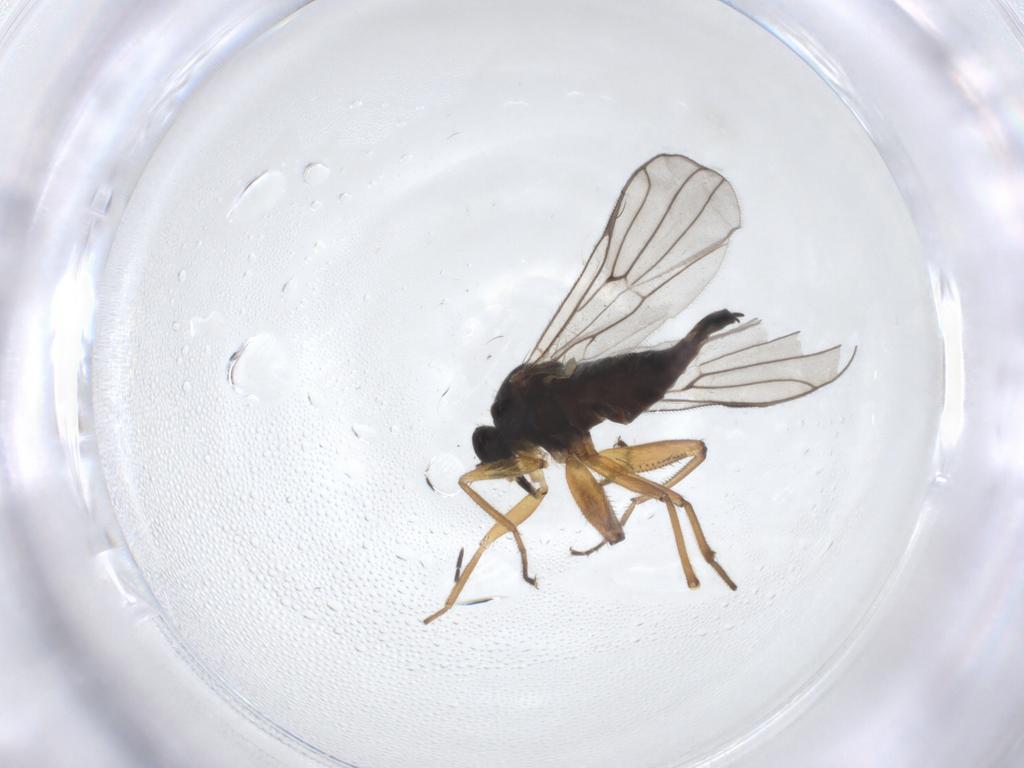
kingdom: Animalia
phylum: Arthropoda
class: Insecta
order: Diptera
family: Hybotidae
